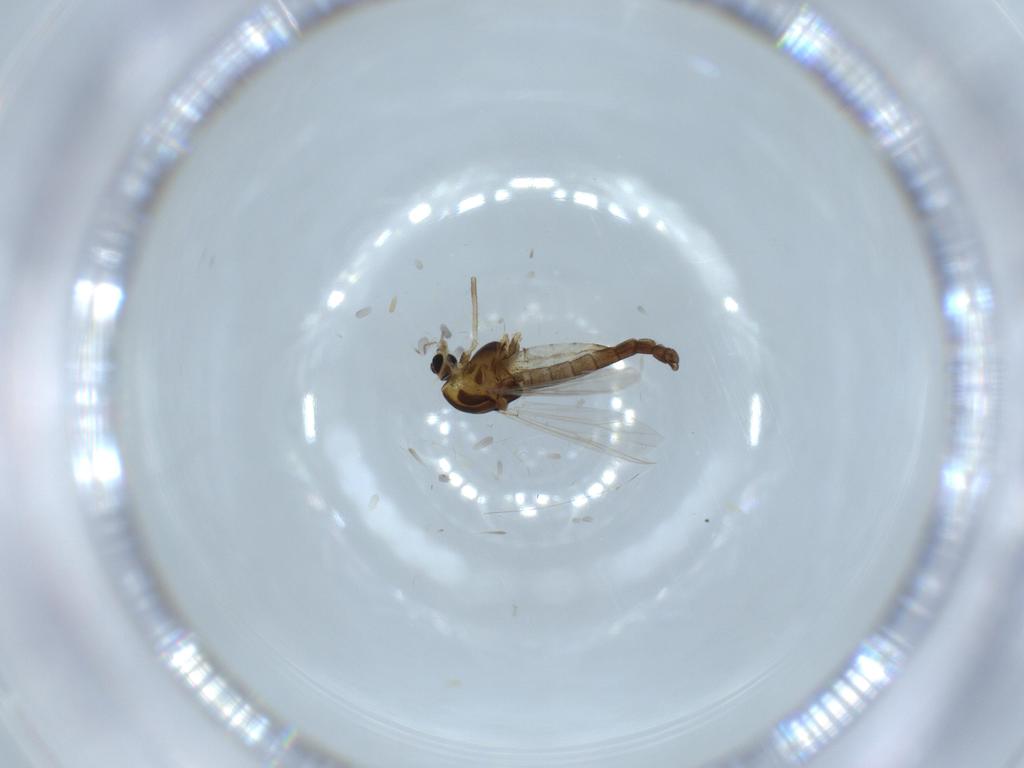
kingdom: Animalia
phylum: Arthropoda
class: Insecta
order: Diptera
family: Chironomidae
